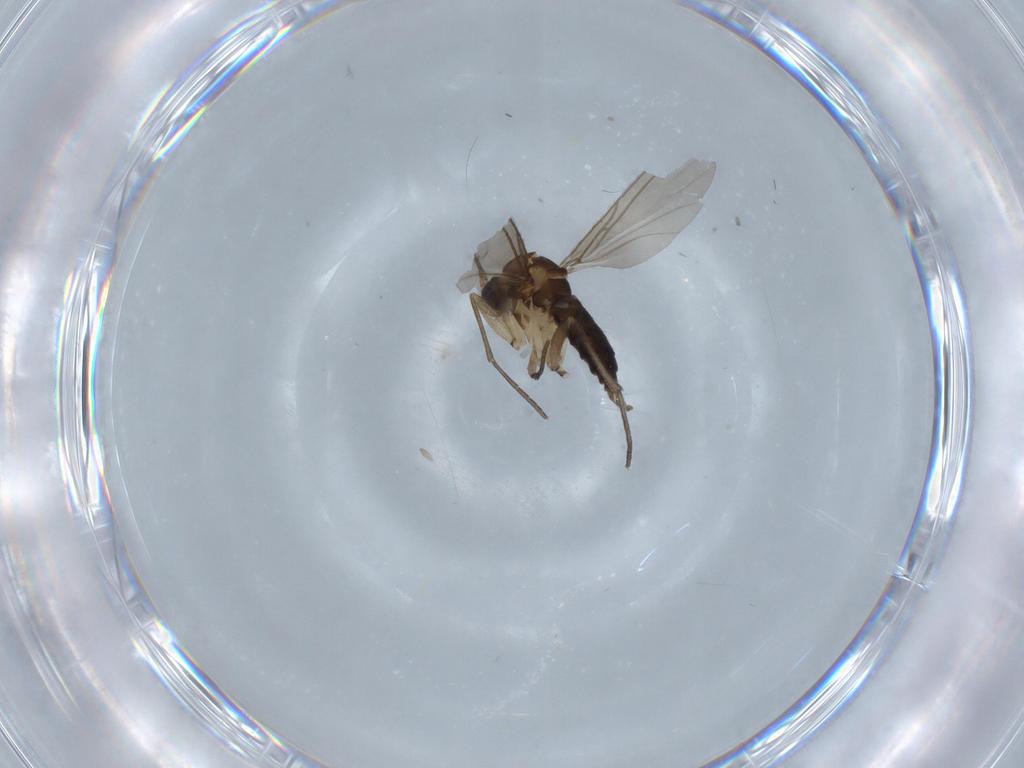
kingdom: Animalia
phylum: Arthropoda
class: Insecta
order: Diptera
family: Sciaridae
